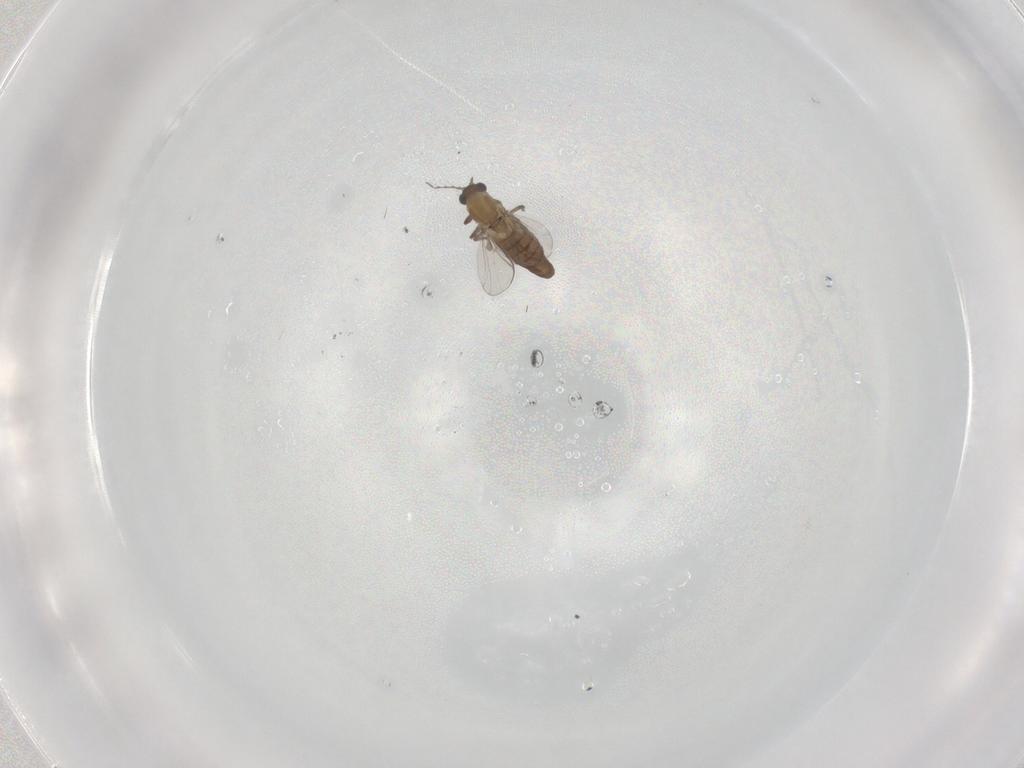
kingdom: Animalia
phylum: Arthropoda
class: Insecta
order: Diptera
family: Chironomidae
